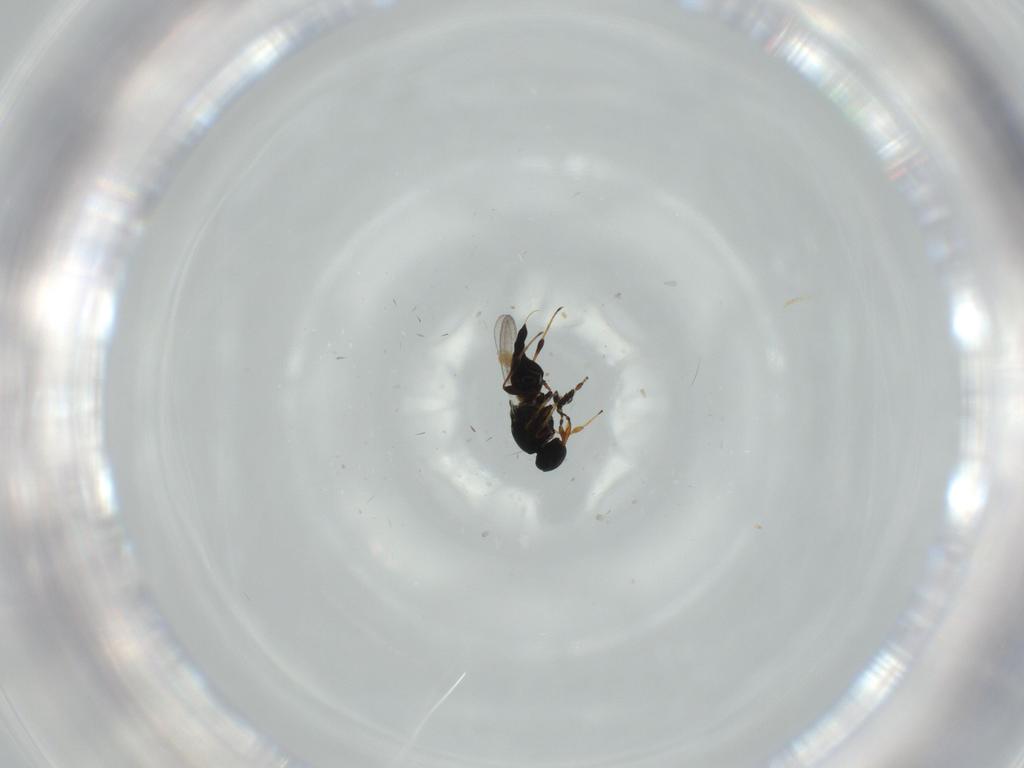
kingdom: Animalia
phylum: Arthropoda
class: Insecta
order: Hymenoptera
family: Platygastridae
